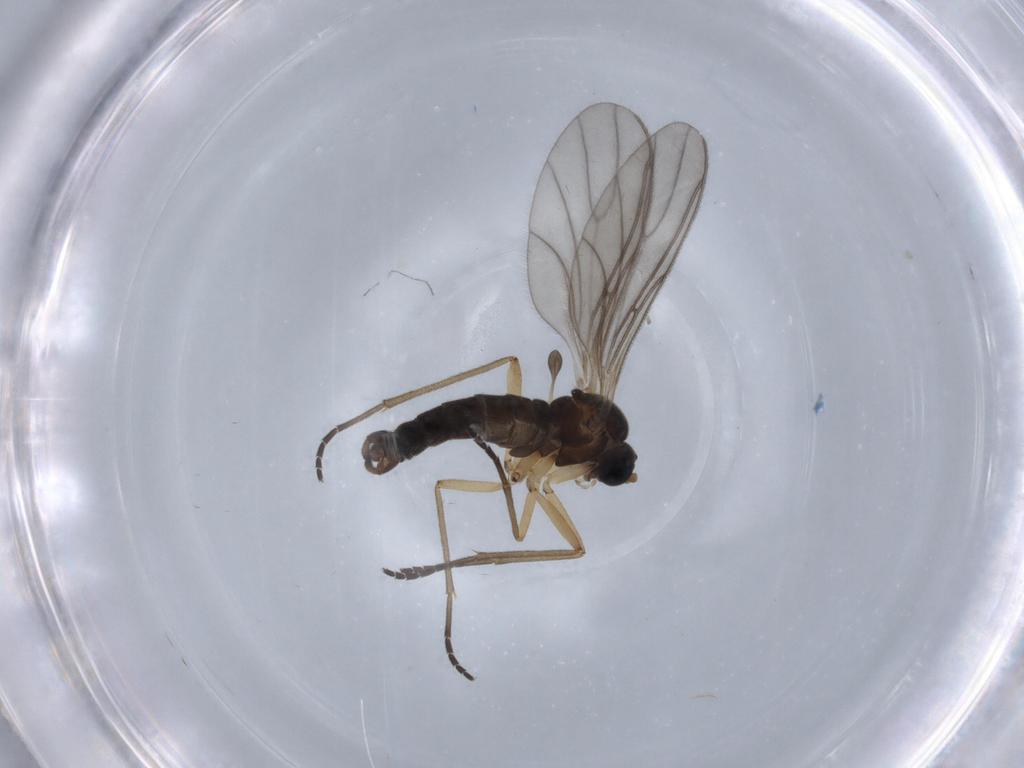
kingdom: Animalia
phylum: Arthropoda
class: Insecta
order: Diptera
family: Sciaridae
